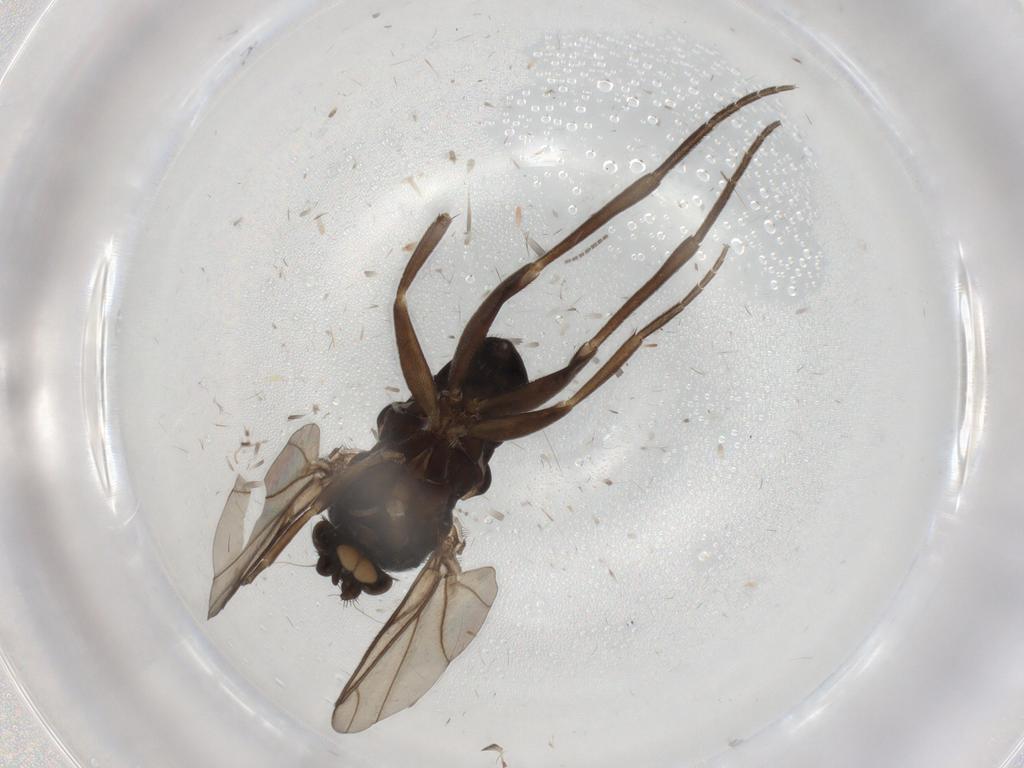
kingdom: Animalia
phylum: Arthropoda
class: Insecta
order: Diptera
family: Phoridae
